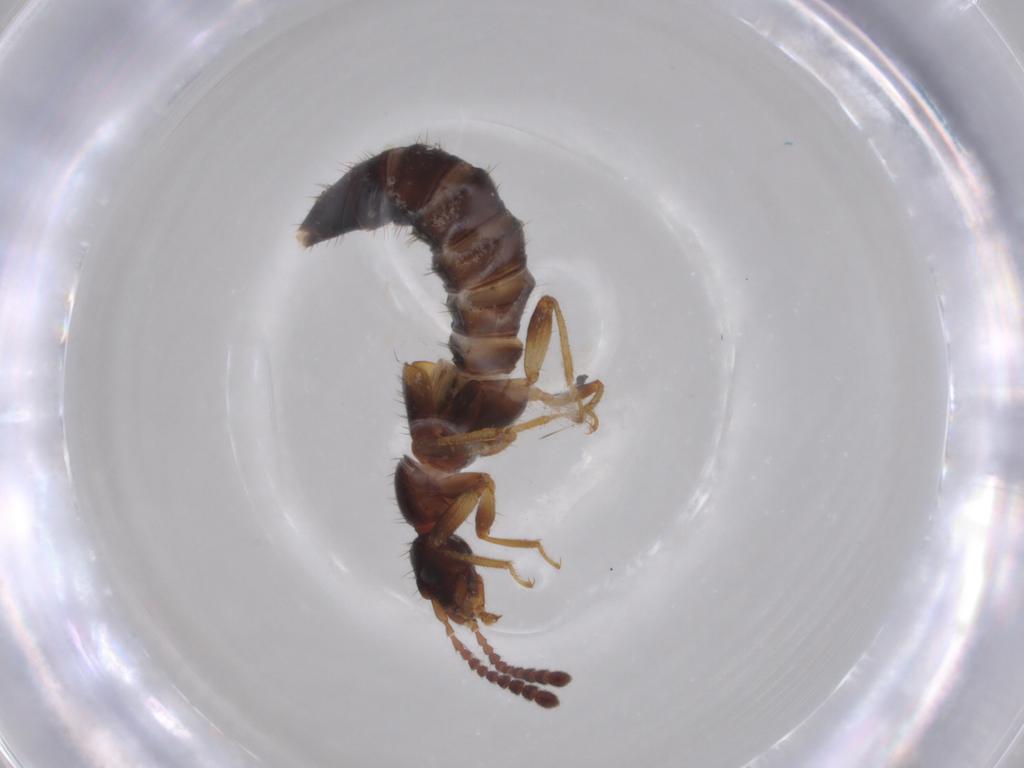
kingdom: Animalia
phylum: Arthropoda
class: Insecta
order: Coleoptera
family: Staphylinidae
